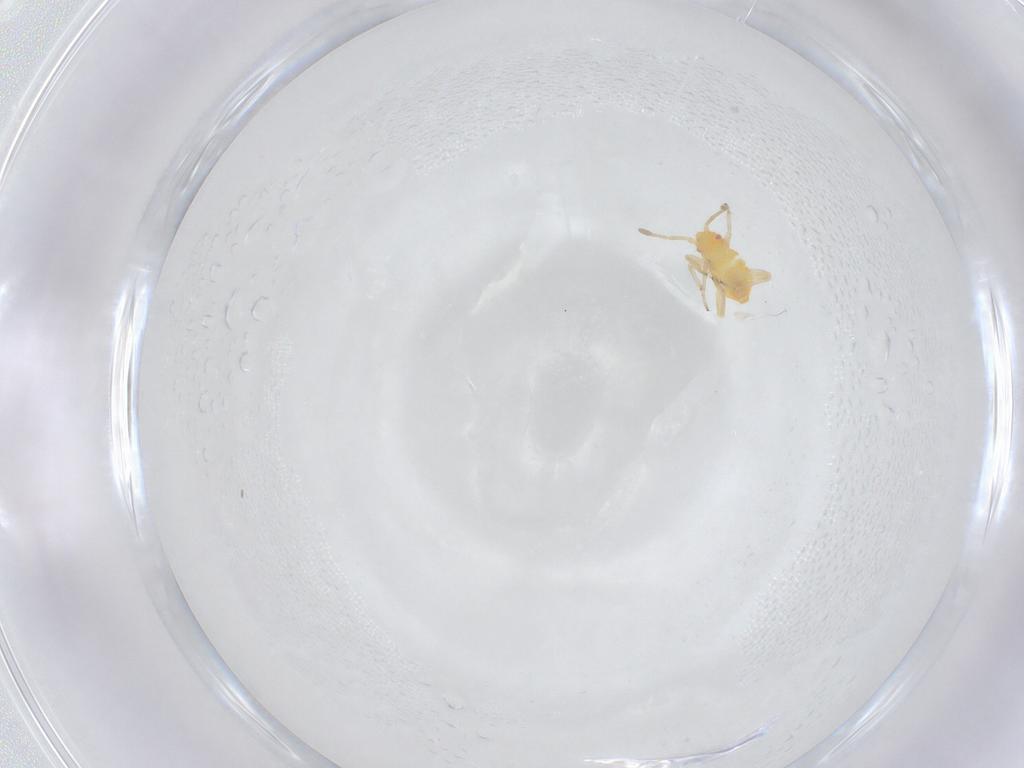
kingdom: Animalia
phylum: Arthropoda
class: Insecta
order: Hemiptera
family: Miridae
